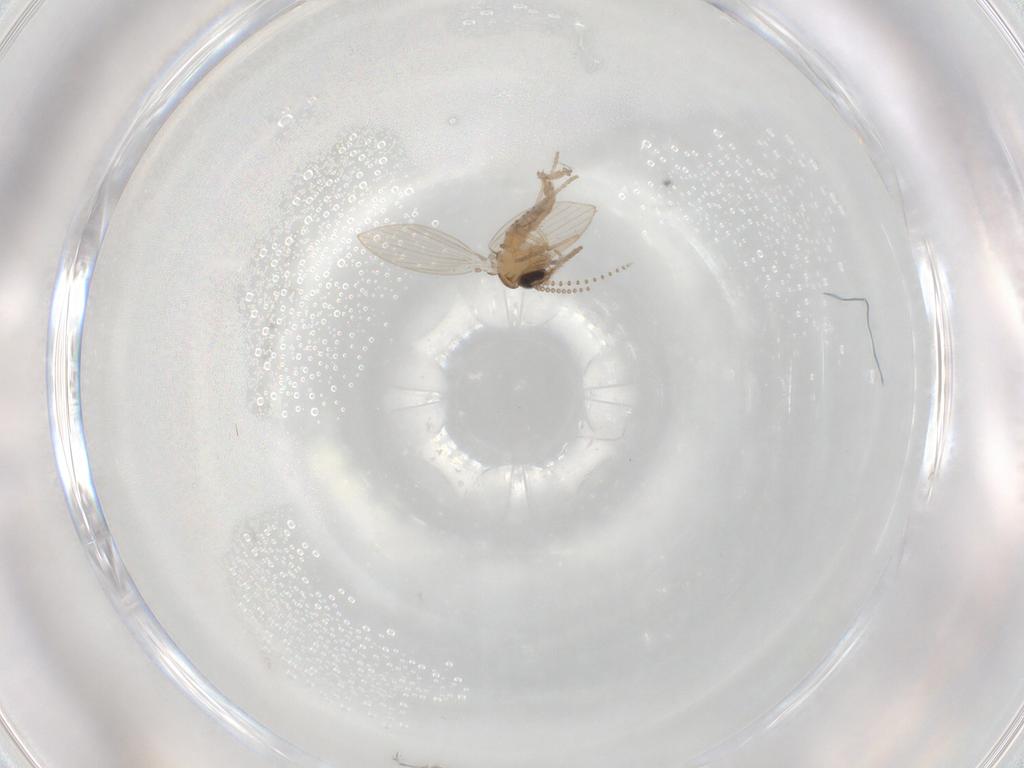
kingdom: Animalia
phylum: Arthropoda
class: Insecta
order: Diptera
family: Psychodidae
